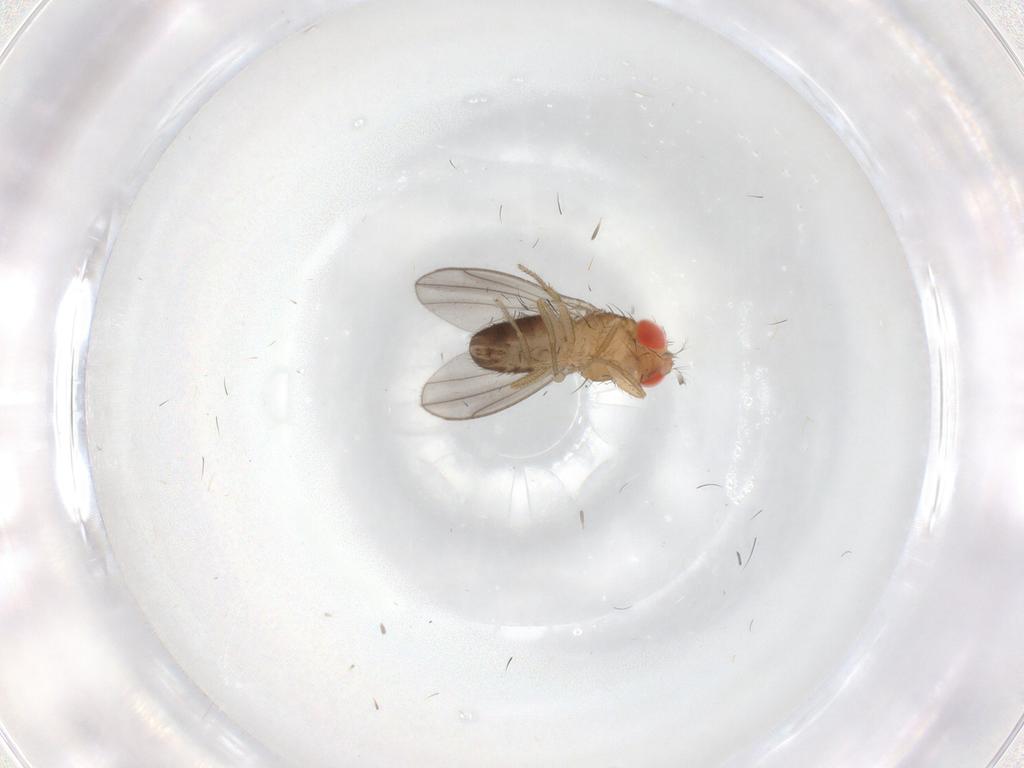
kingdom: Animalia
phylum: Arthropoda
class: Insecta
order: Diptera
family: Drosophilidae
